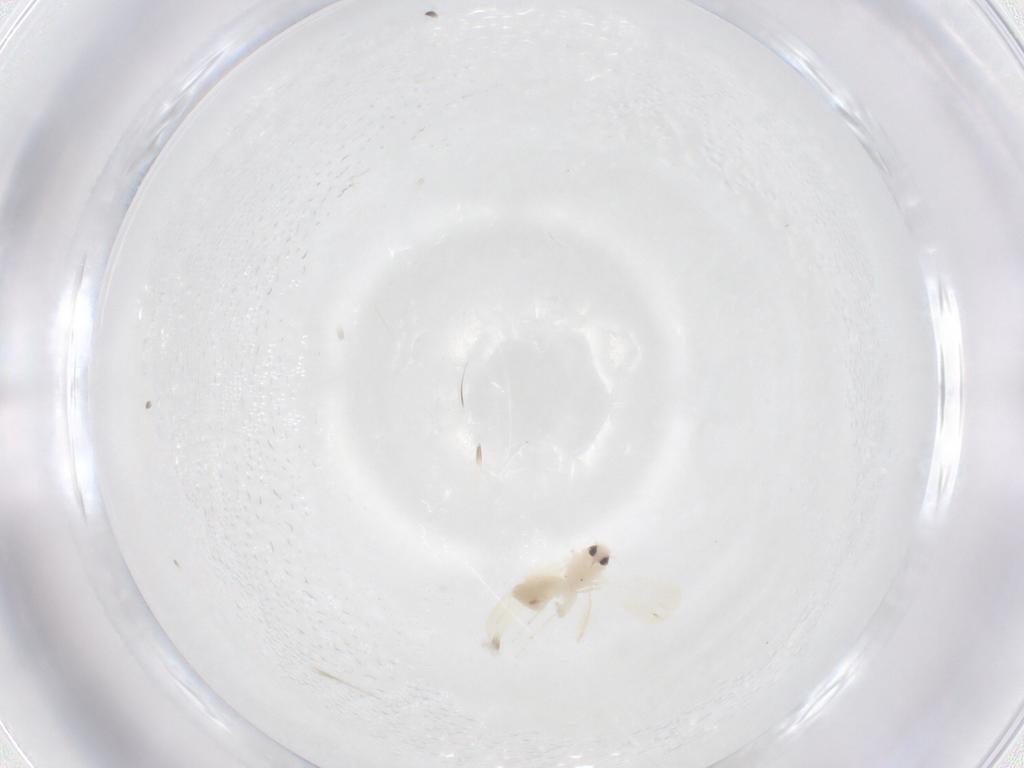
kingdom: Animalia
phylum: Arthropoda
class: Insecta
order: Hemiptera
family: Aleyrodidae
